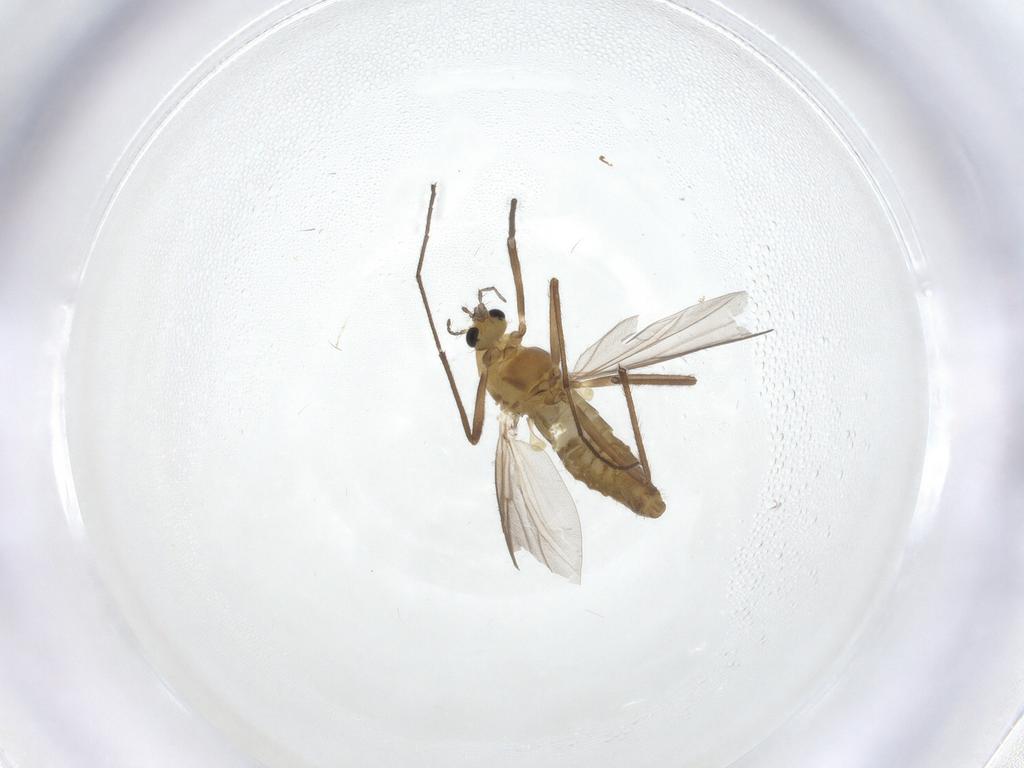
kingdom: Animalia
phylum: Arthropoda
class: Insecta
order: Diptera
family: Chironomidae
